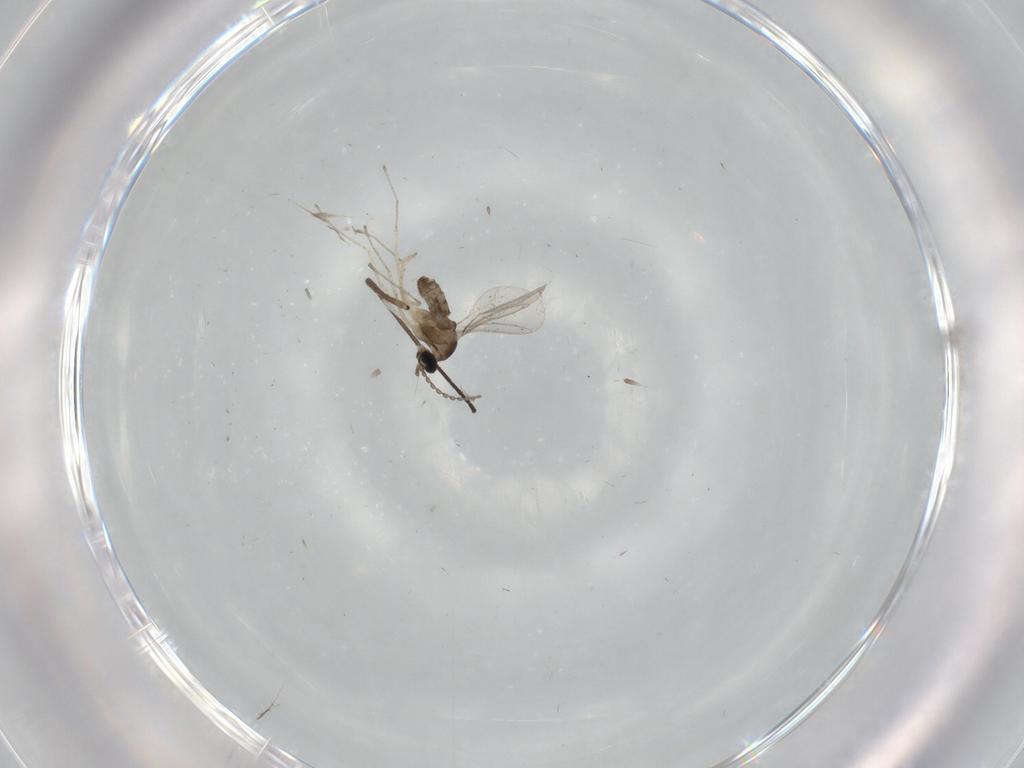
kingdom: Animalia
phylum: Arthropoda
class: Insecta
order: Diptera
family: Cecidomyiidae
